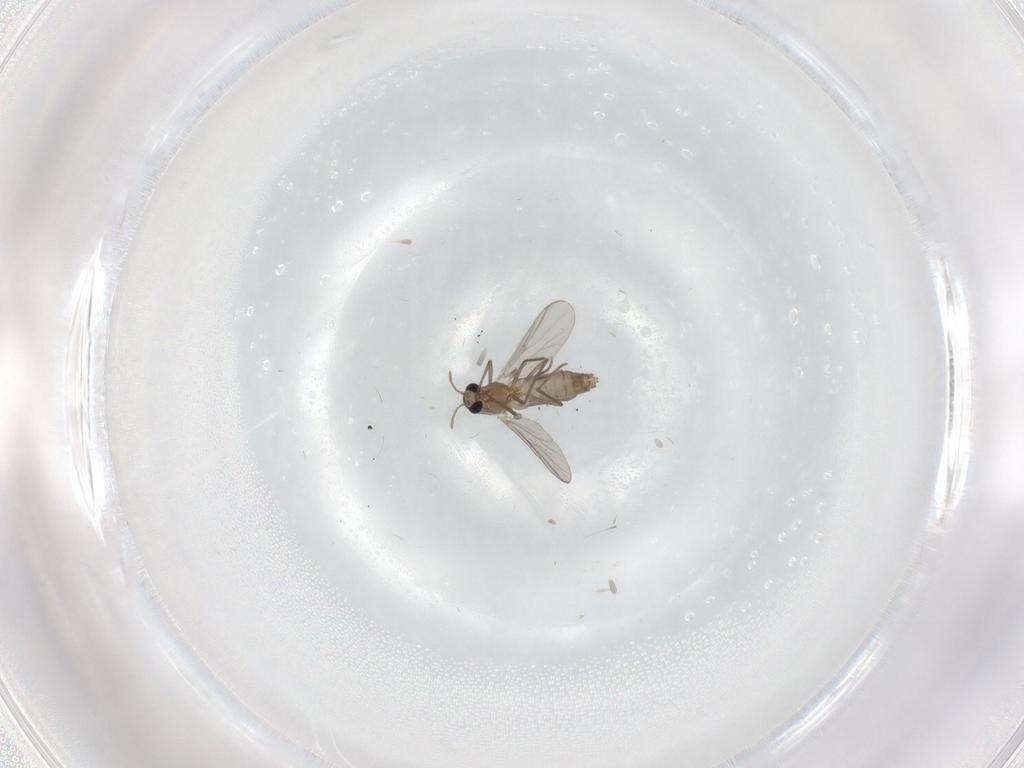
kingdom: Animalia
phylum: Arthropoda
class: Insecta
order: Diptera
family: Chironomidae
